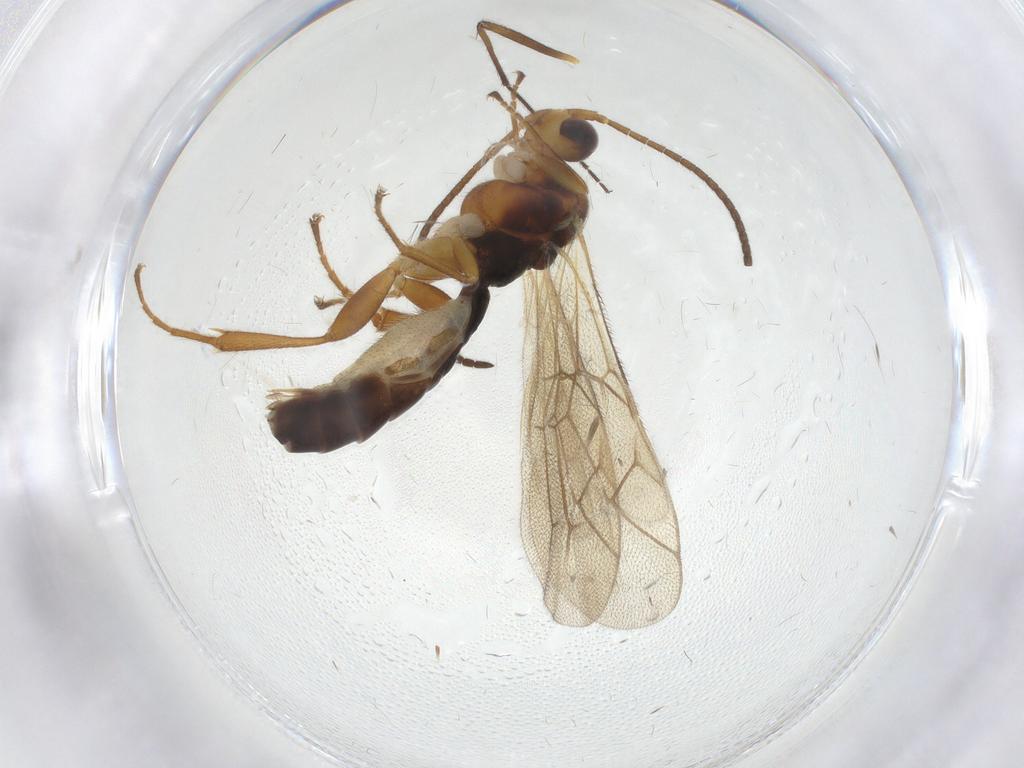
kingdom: Animalia
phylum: Arthropoda
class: Insecta
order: Hymenoptera
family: Ichneumonidae
